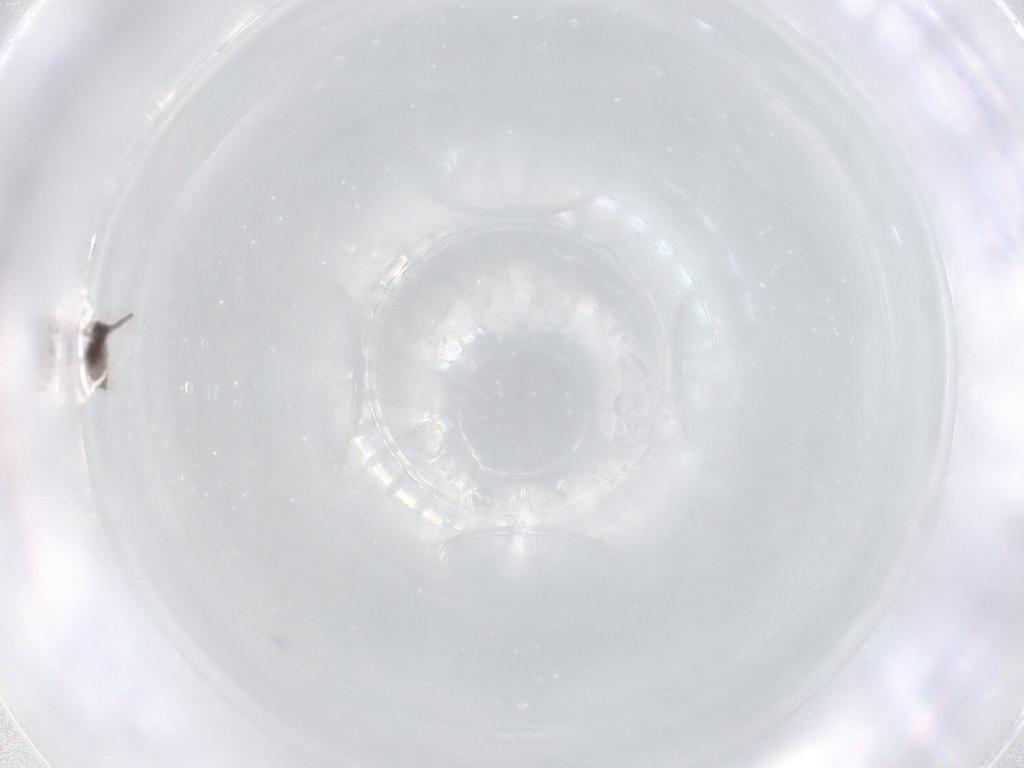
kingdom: Animalia
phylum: Arthropoda
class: Insecta
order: Diptera
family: Cecidomyiidae
